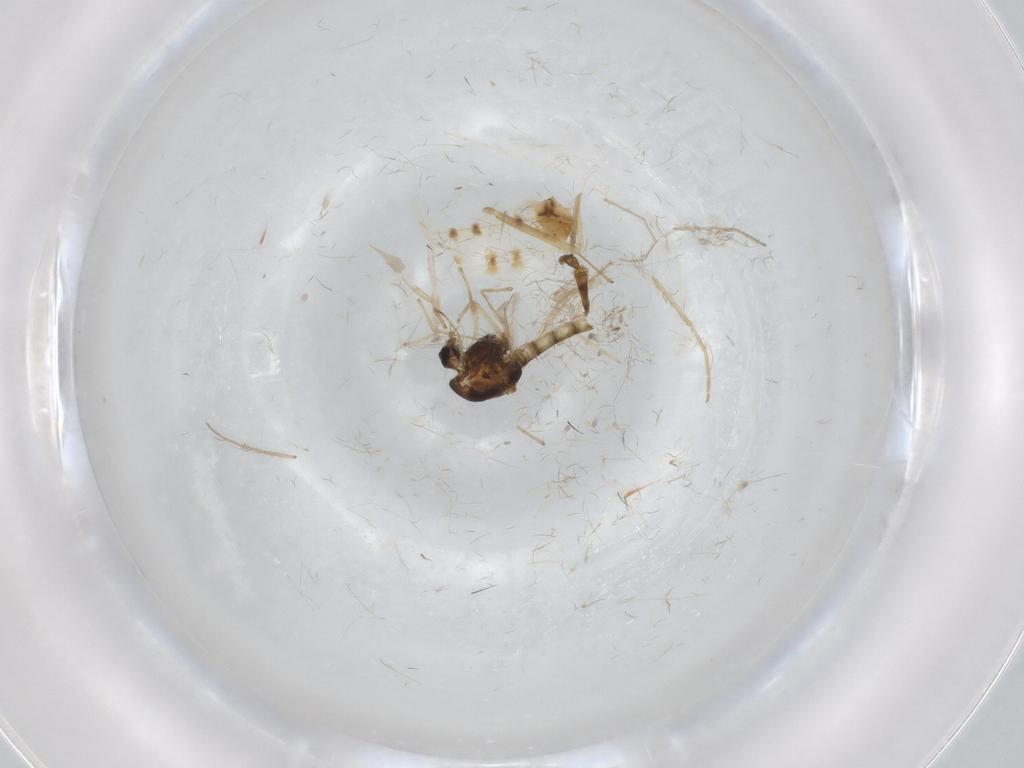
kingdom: Animalia
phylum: Arthropoda
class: Insecta
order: Diptera
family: Chironomidae
